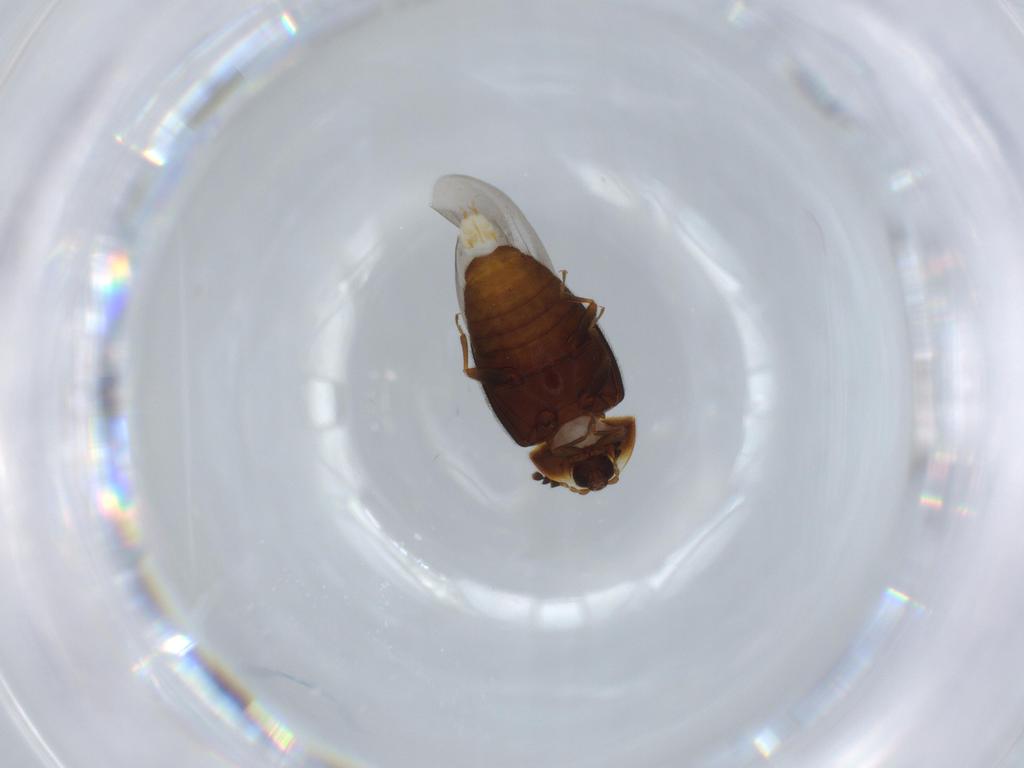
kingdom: Animalia
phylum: Arthropoda
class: Insecta
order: Coleoptera
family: Corylophidae
